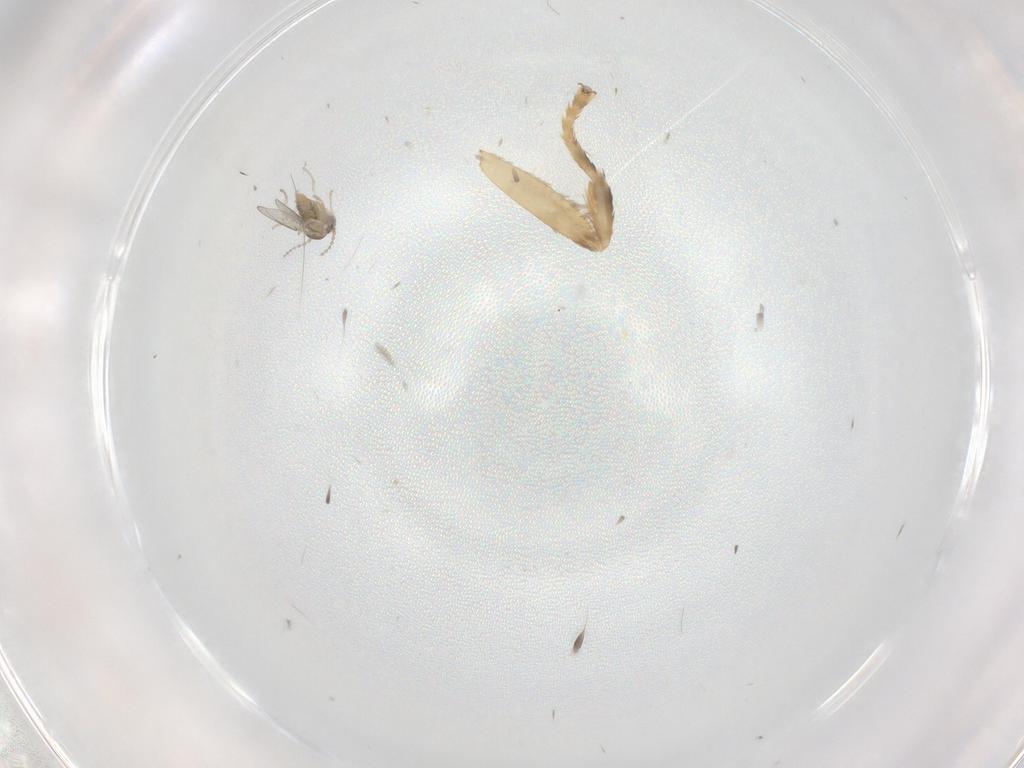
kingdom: Animalia
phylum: Arthropoda
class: Insecta
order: Diptera
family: Cecidomyiidae
